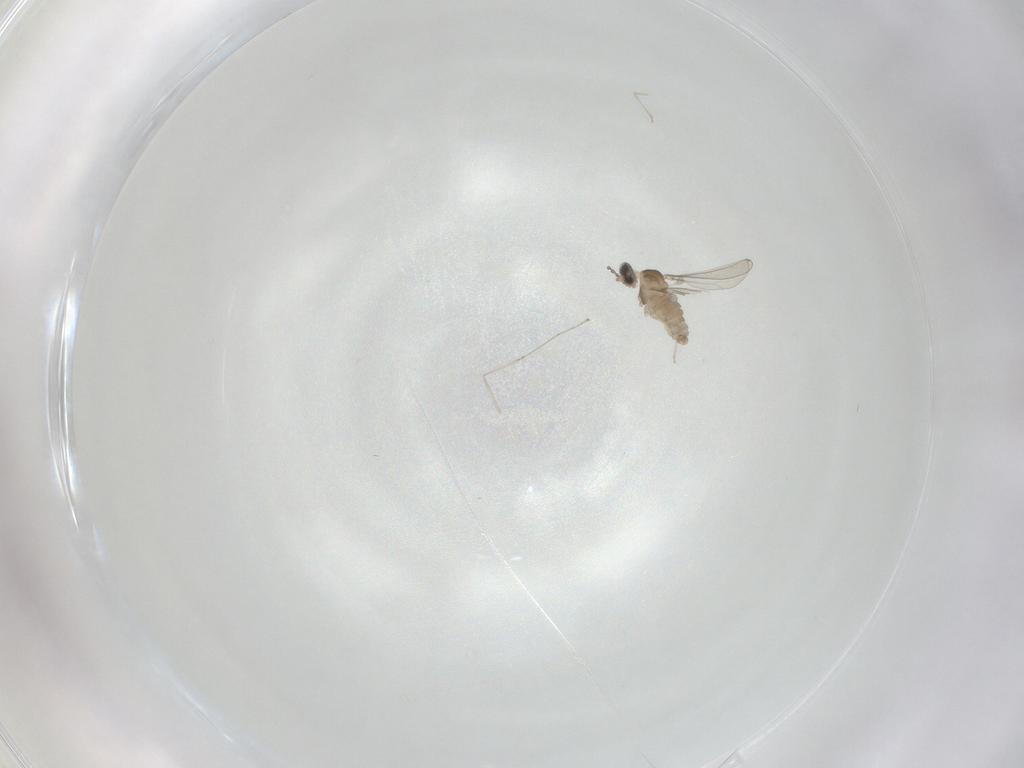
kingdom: Animalia
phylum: Arthropoda
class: Insecta
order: Diptera
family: Cecidomyiidae
